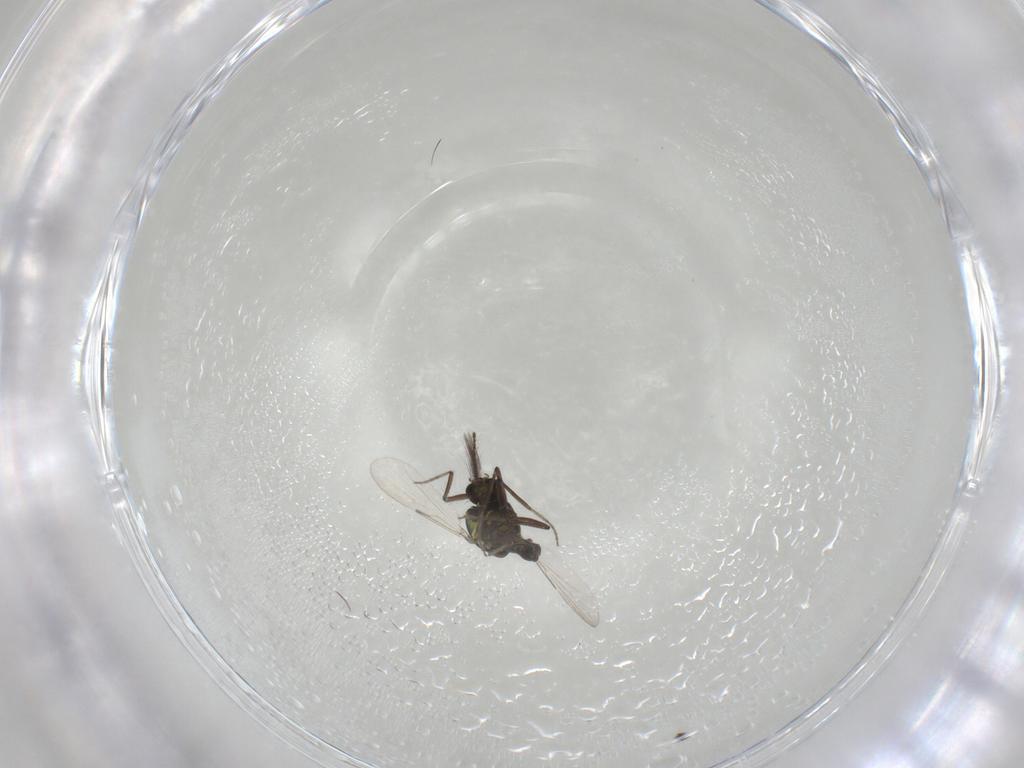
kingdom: Animalia
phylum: Arthropoda
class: Insecta
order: Diptera
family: Ceratopogonidae
